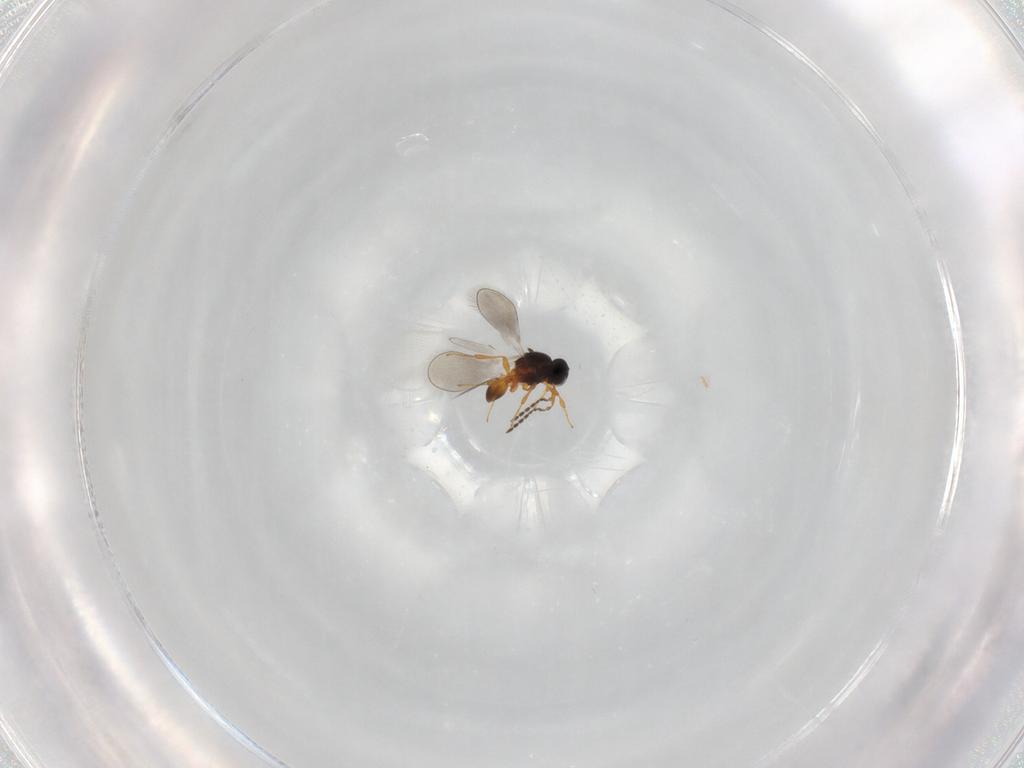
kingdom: Animalia
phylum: Arthropoda
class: Insecta
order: Hymenoptera
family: Platygastridae
